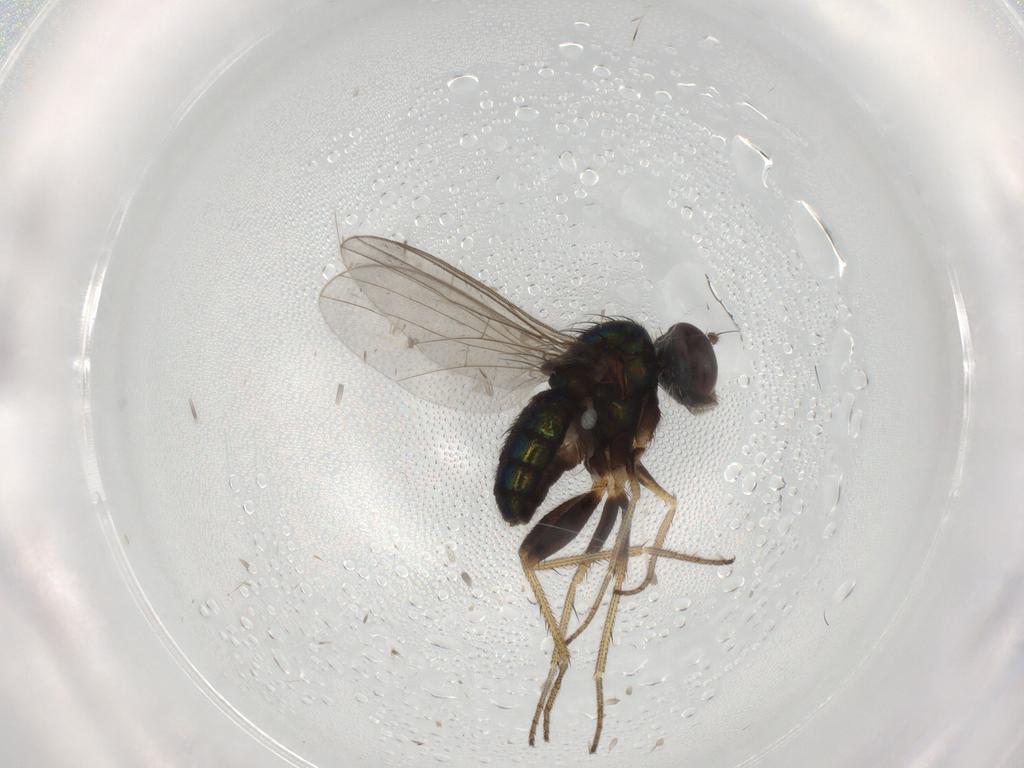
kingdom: Animalia
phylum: Arthropoda
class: Insecta
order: Diptera
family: Dolichopodidae
